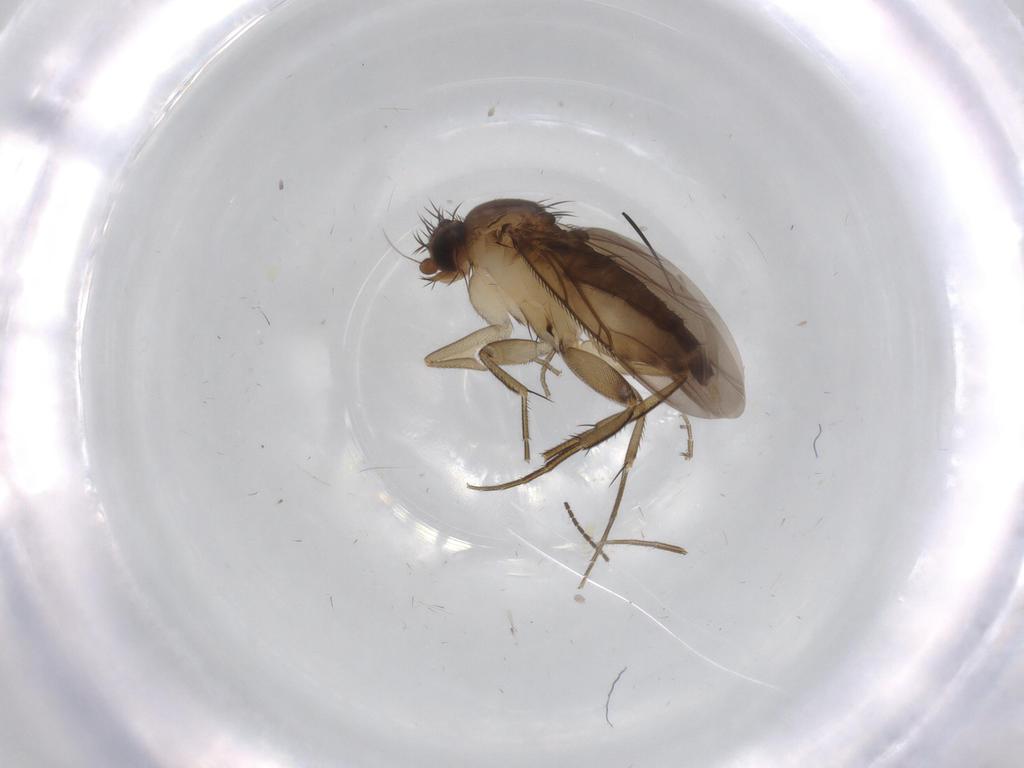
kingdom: Animalia
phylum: Arthropoda
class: Insecta
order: Diptera
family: Phoridae
